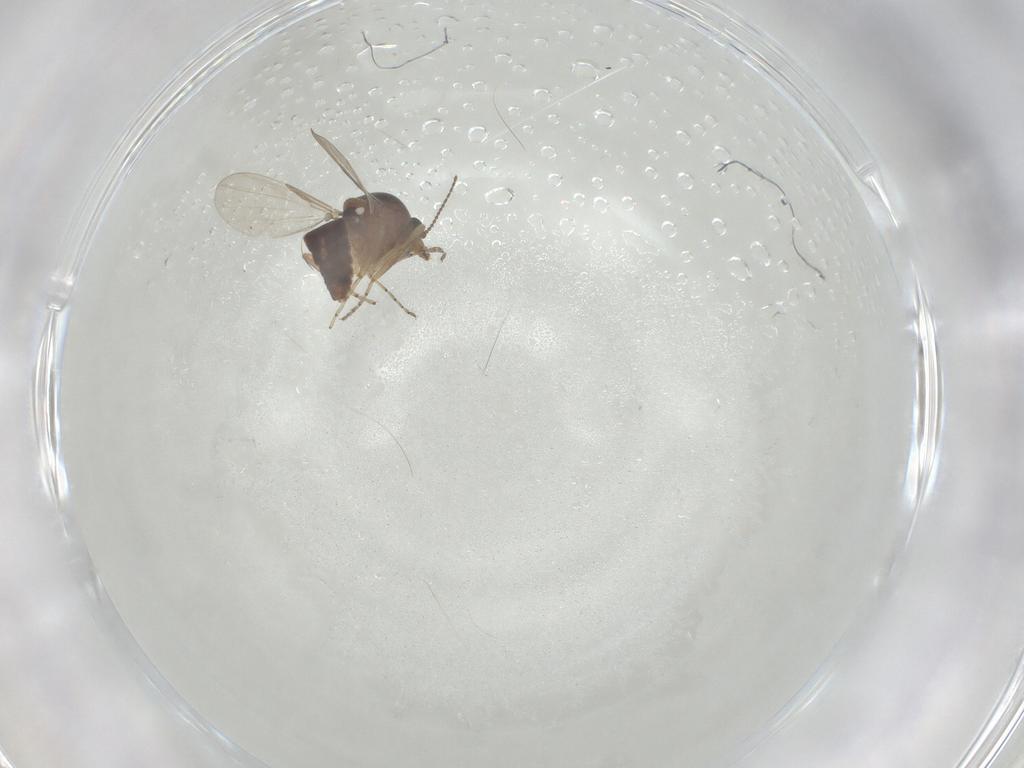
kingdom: Animalia
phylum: Arthropoda
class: Insecta
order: Diptera
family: Ceratopogonidae
